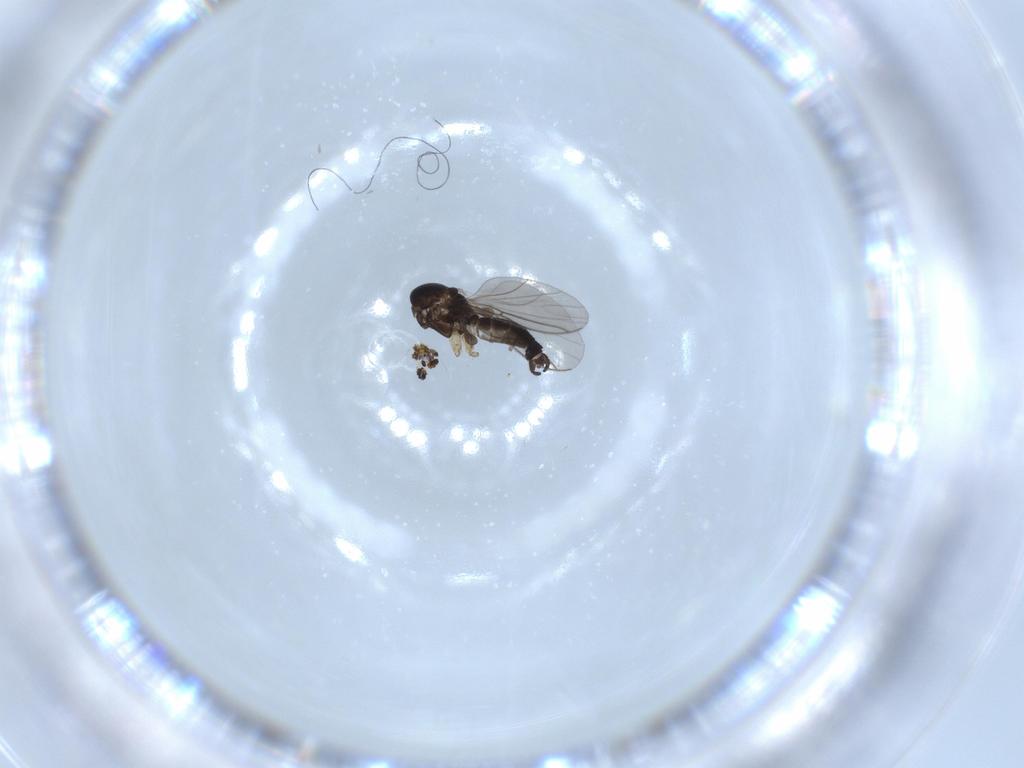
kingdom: Animalia
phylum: Arthropoda
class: Insecta
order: Diptera
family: Sciaridae
